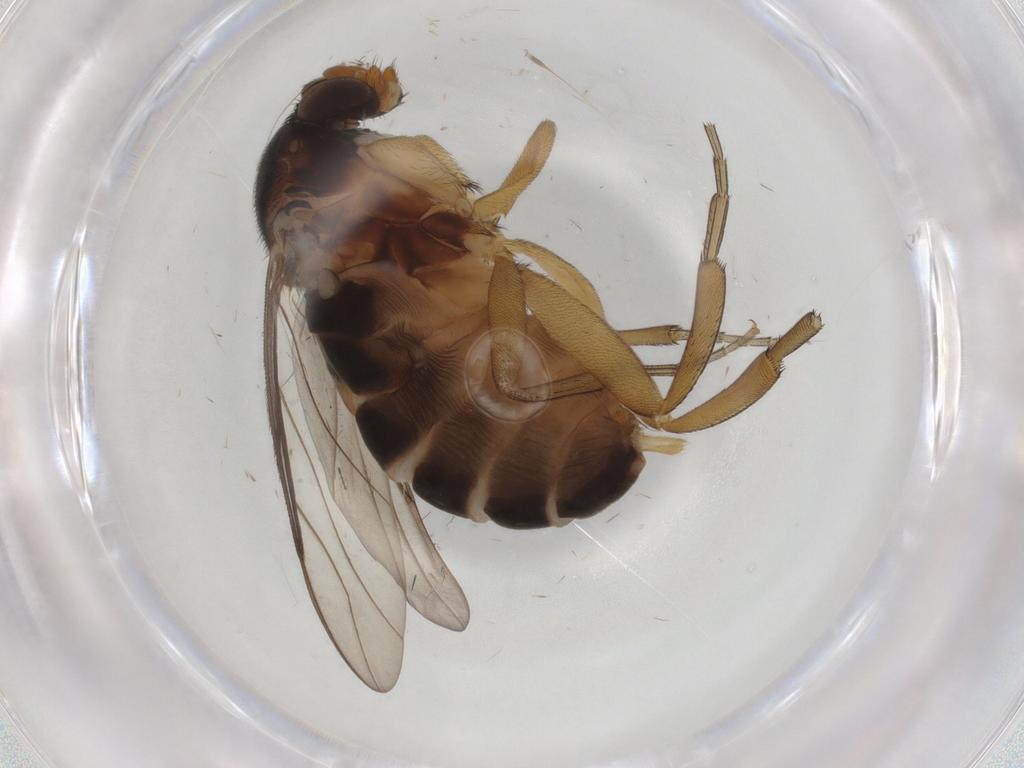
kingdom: Animalia
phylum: Arthropoda
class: Insecta
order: Diptera
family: Phoridae
